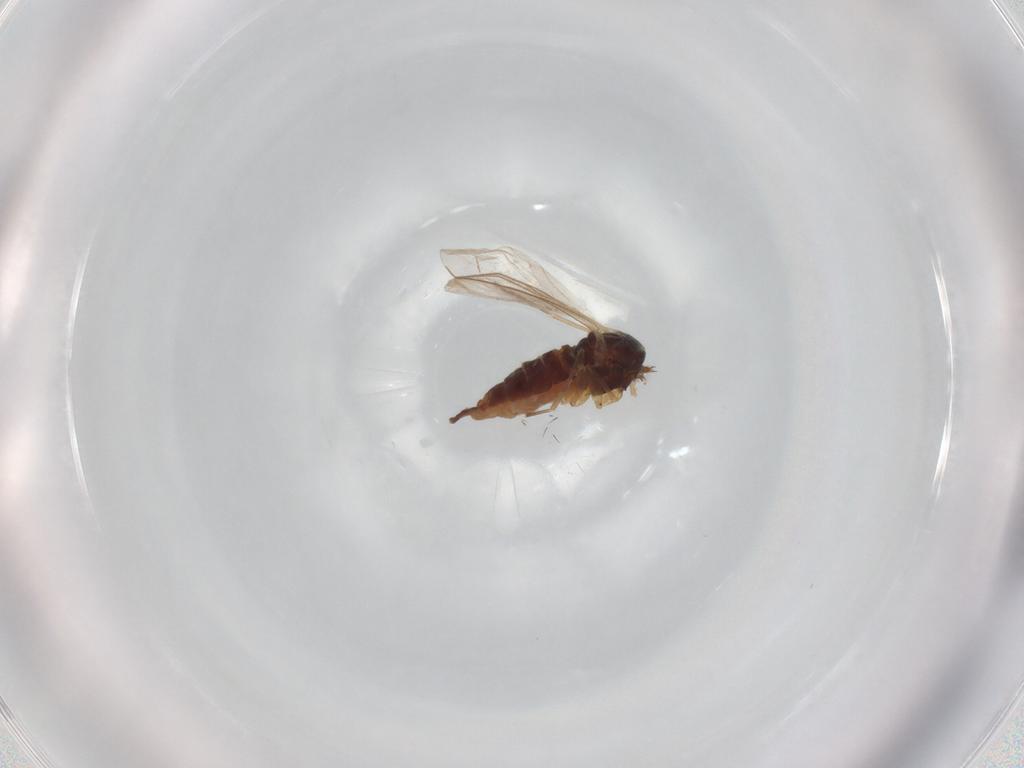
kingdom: Animalia
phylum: Arthropoda
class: Insecta
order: Diptera
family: Sciaridae
